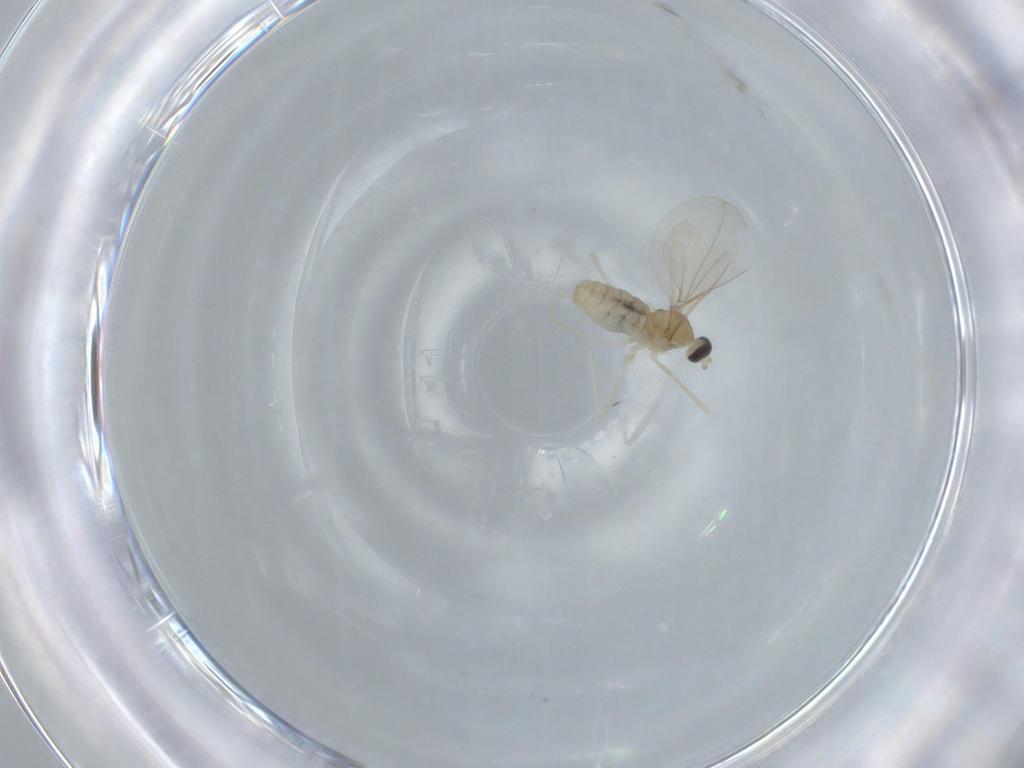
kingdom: Animalia
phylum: Arthropoda
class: Insecta
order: Diptera
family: Cecidomyiidae
